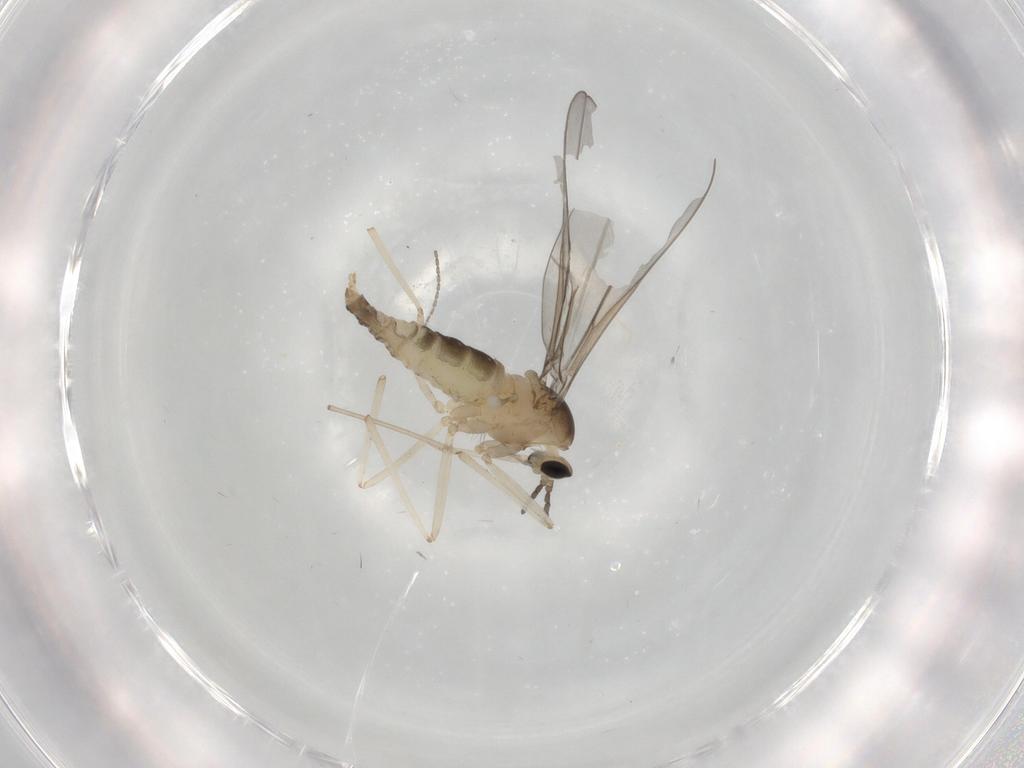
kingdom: Animalia
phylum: Arthropoda
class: Insecta
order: Diptera
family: Cecidomyiidae
